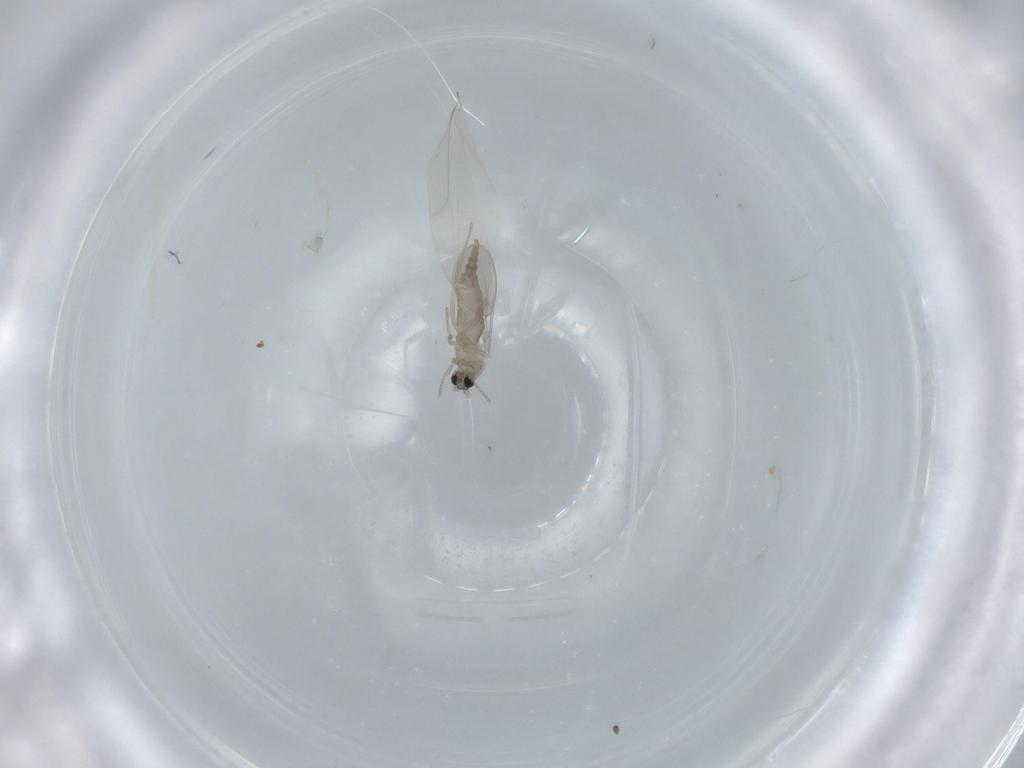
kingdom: Animalia
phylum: Arthropoda
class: Insecta
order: Diptera
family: Cecidomyiidae
